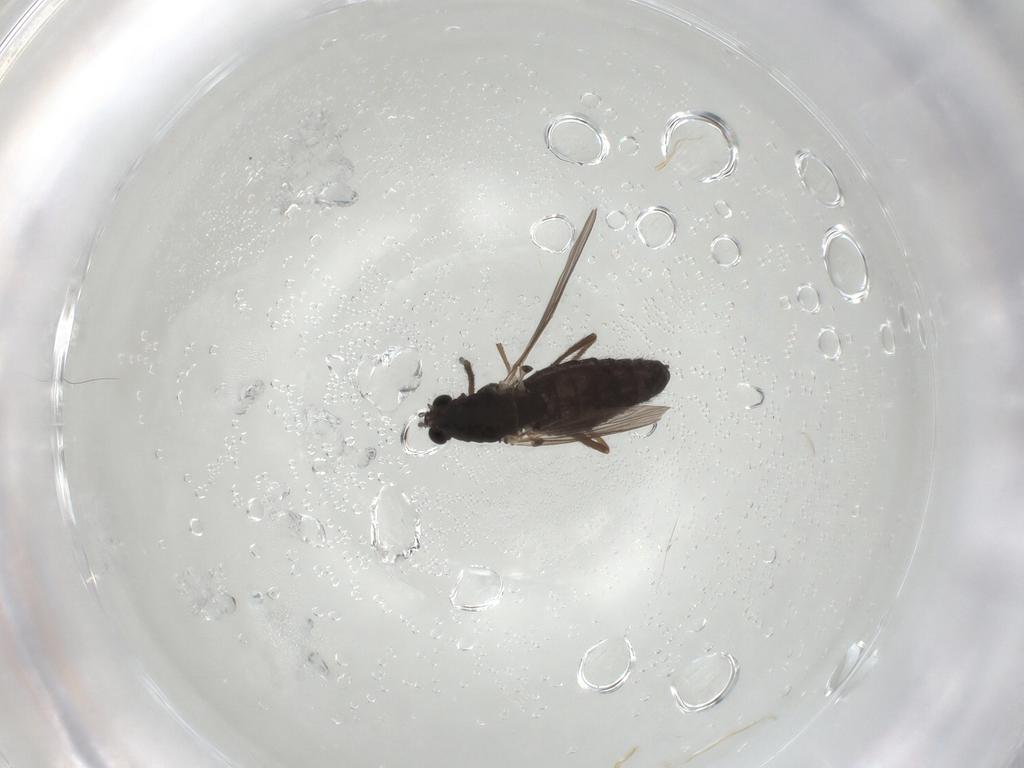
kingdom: Animalia
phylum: Arthropoda
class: Insecta
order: Diptera
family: Chironomidae
